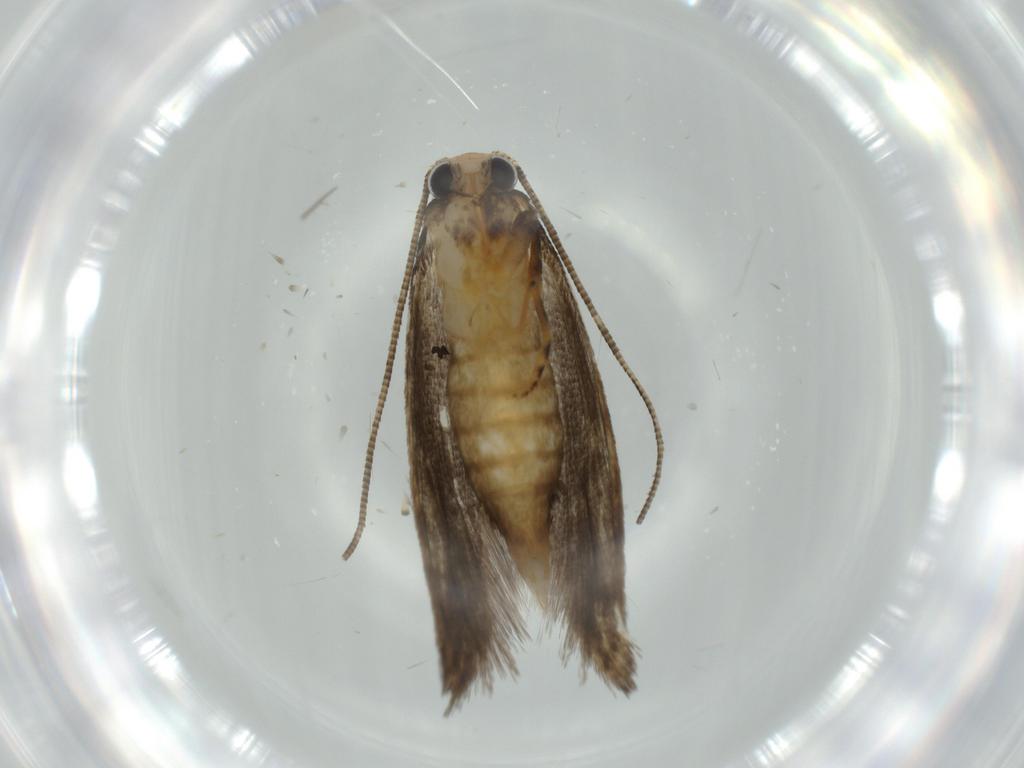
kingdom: Animalia
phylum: Arthropoda
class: Insecta
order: Lepidoptera
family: Tineidae
